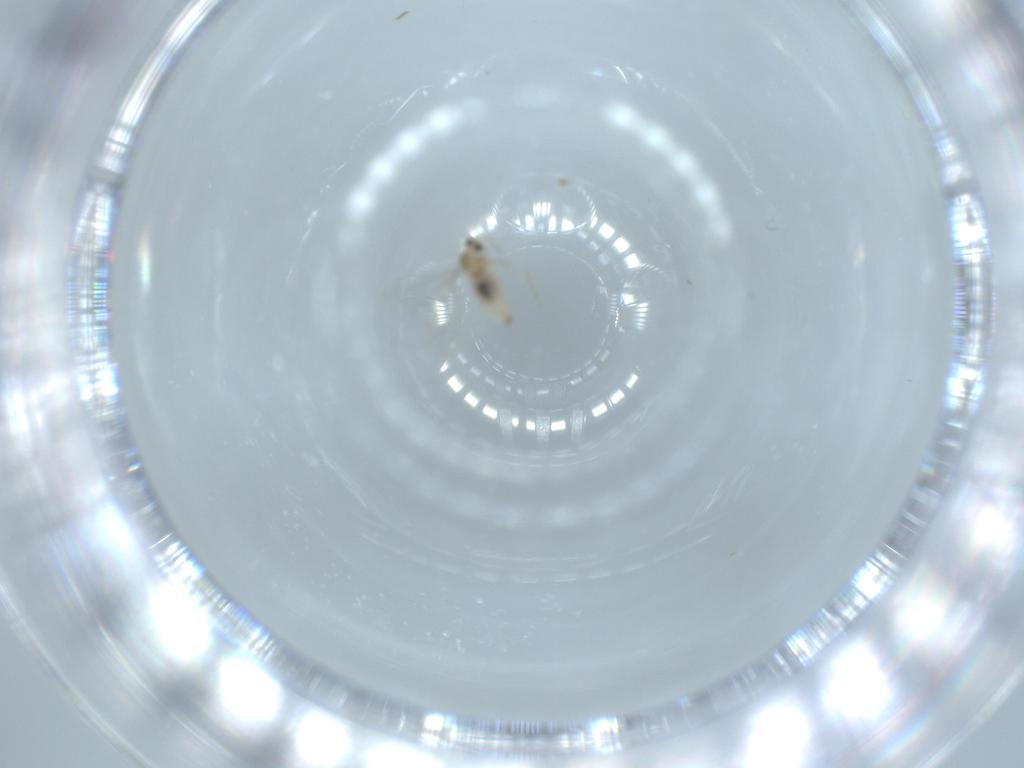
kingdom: Animalia
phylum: Arthropoda
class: Insecta
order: Diptera
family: Cecidomyiidae
